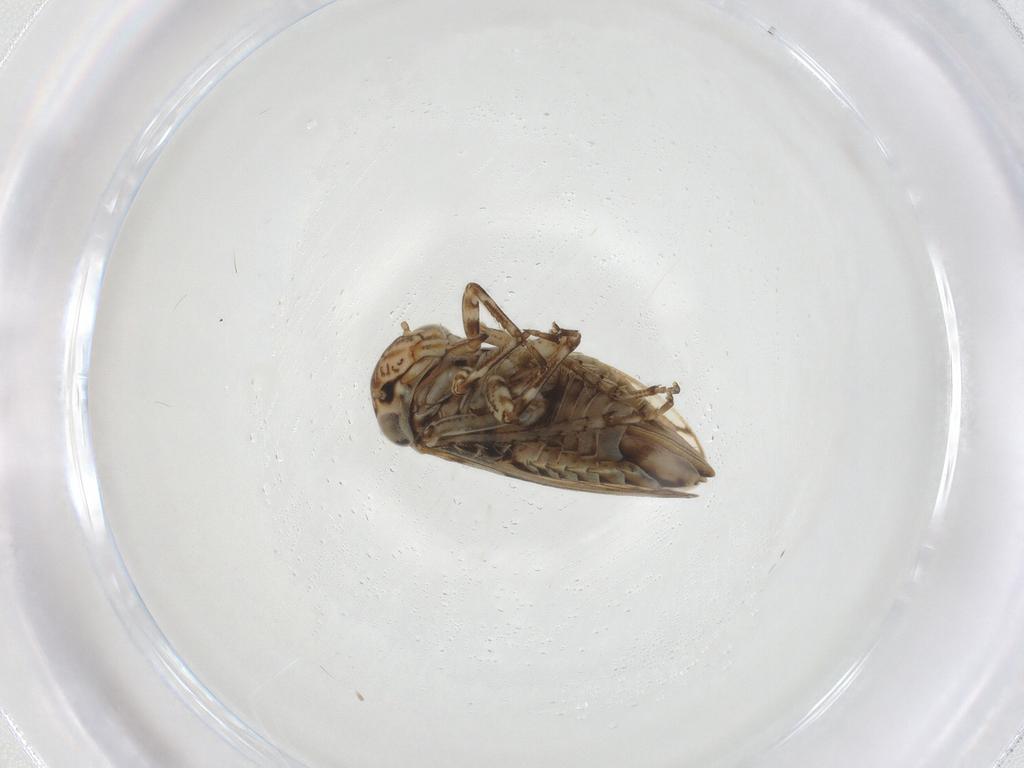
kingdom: Animalia
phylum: Arthropoda
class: Insecta
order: Hemiptera
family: Cicadellidae
